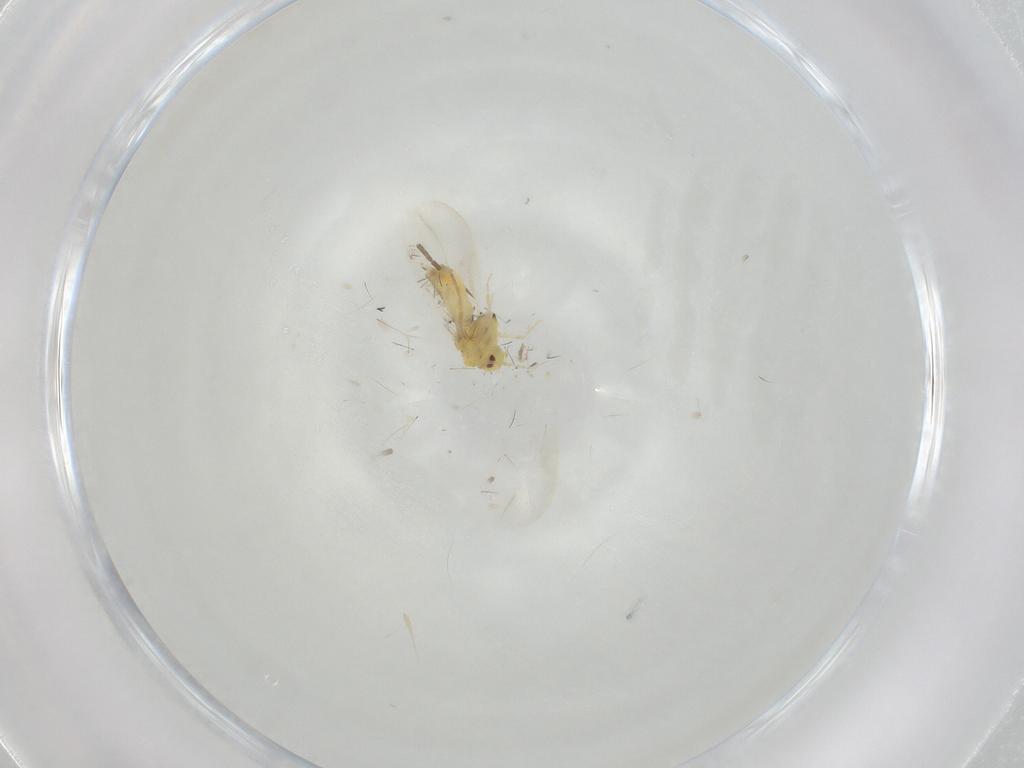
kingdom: Animalia
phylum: Arthropoda
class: Insecta
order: Hemiptera
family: Aleyrodidae
